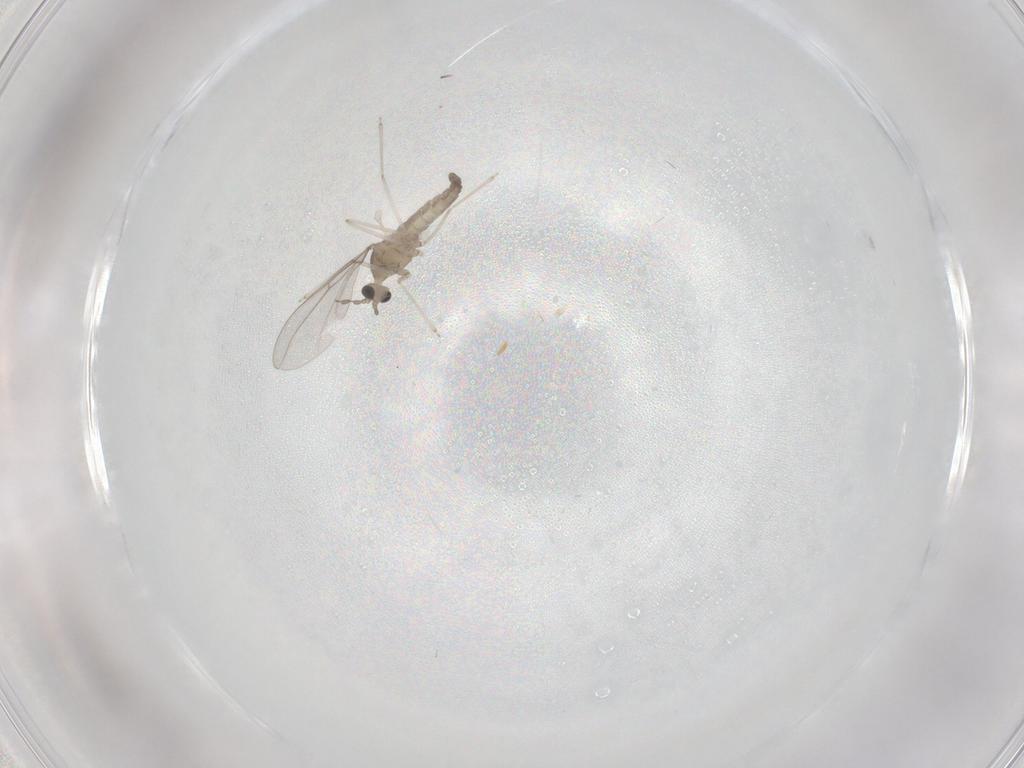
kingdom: Animalia
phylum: Arthropoda
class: Insecta
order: Diptera
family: Cecidomyiidae
